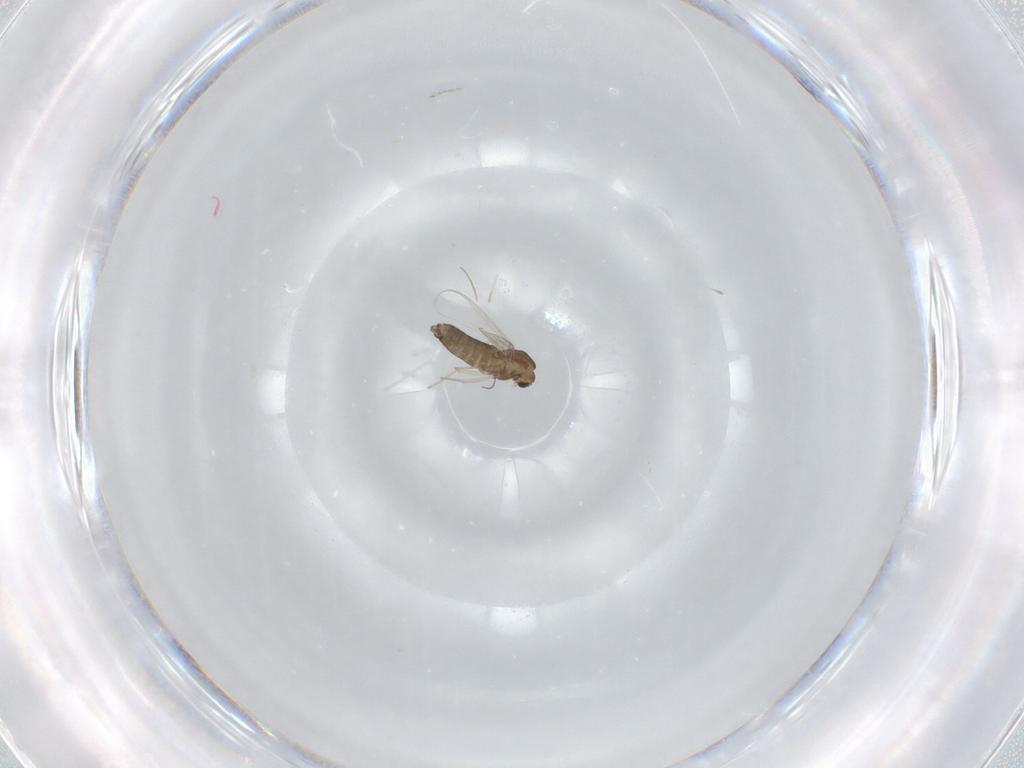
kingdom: Animalia
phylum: Arthropoda
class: Insecta
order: Diptera
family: Chironomidae
